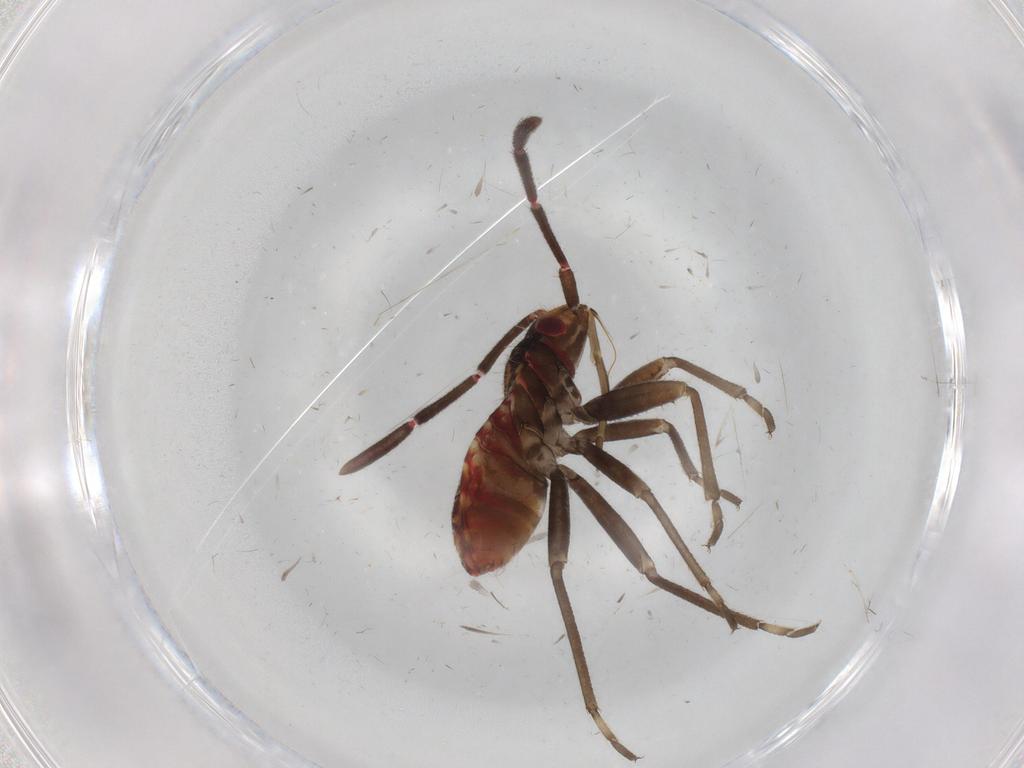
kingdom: Animalia
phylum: Arthropoda
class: Insecta
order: Hemiptera
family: Rhyparochromidae
